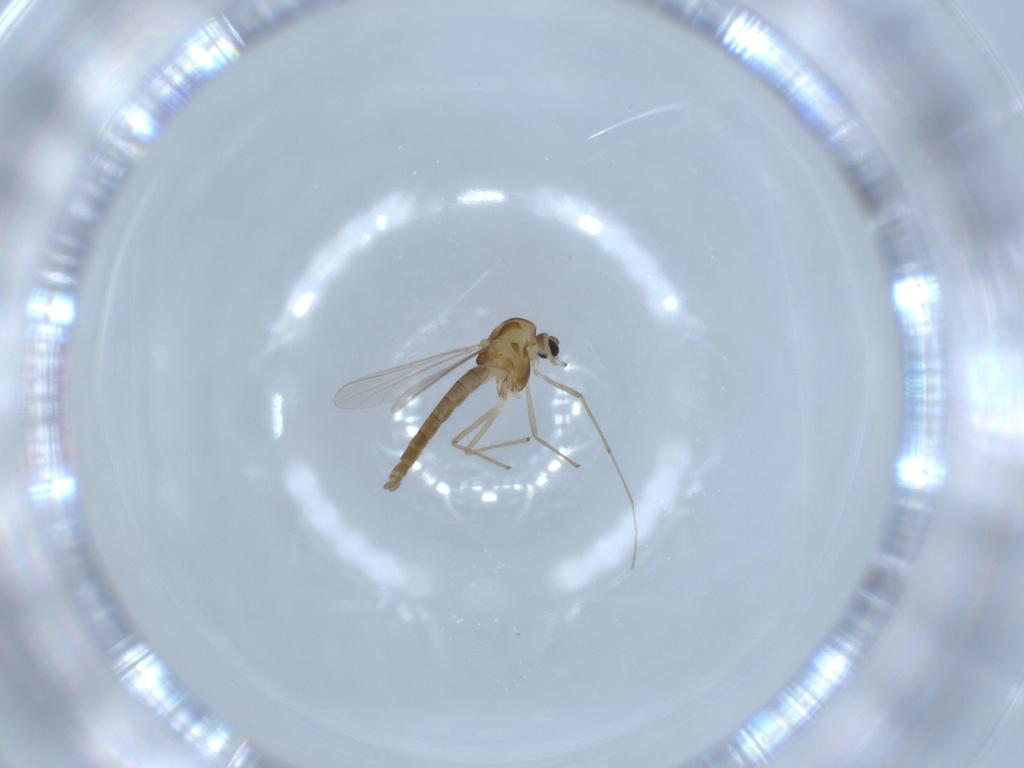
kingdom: Animalia
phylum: Arthropoda
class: Insecta
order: Diptera
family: Chironomidae
